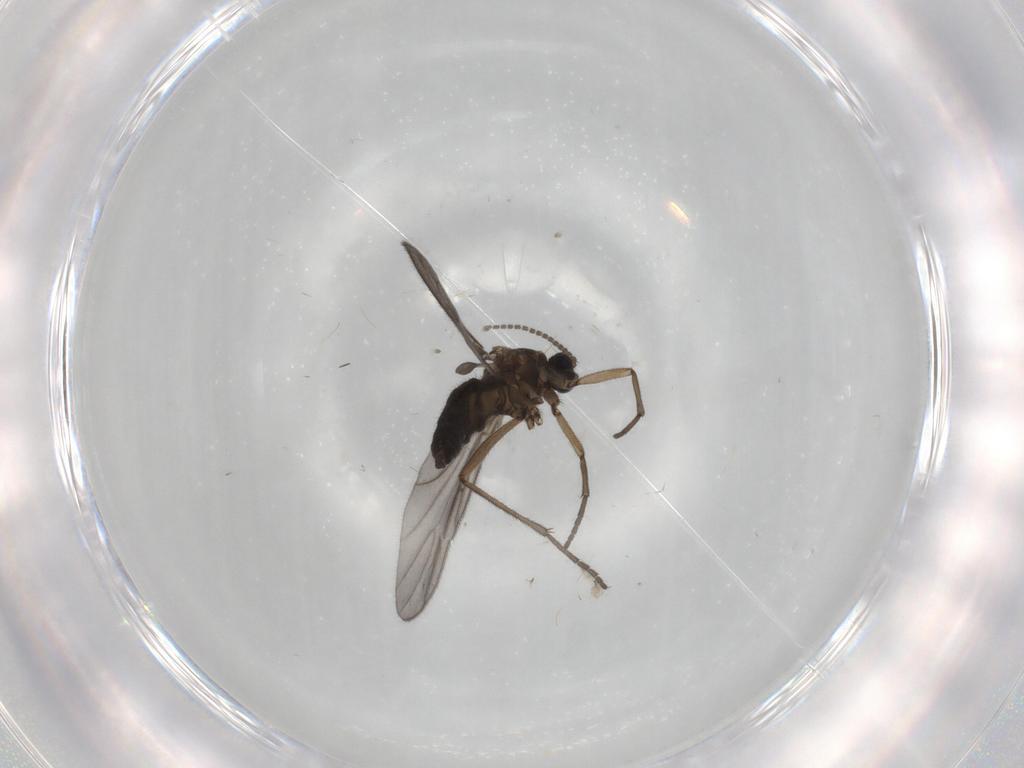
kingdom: Animalia
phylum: Arthropoda
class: Insecta
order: Diptera
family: Sciaridae
